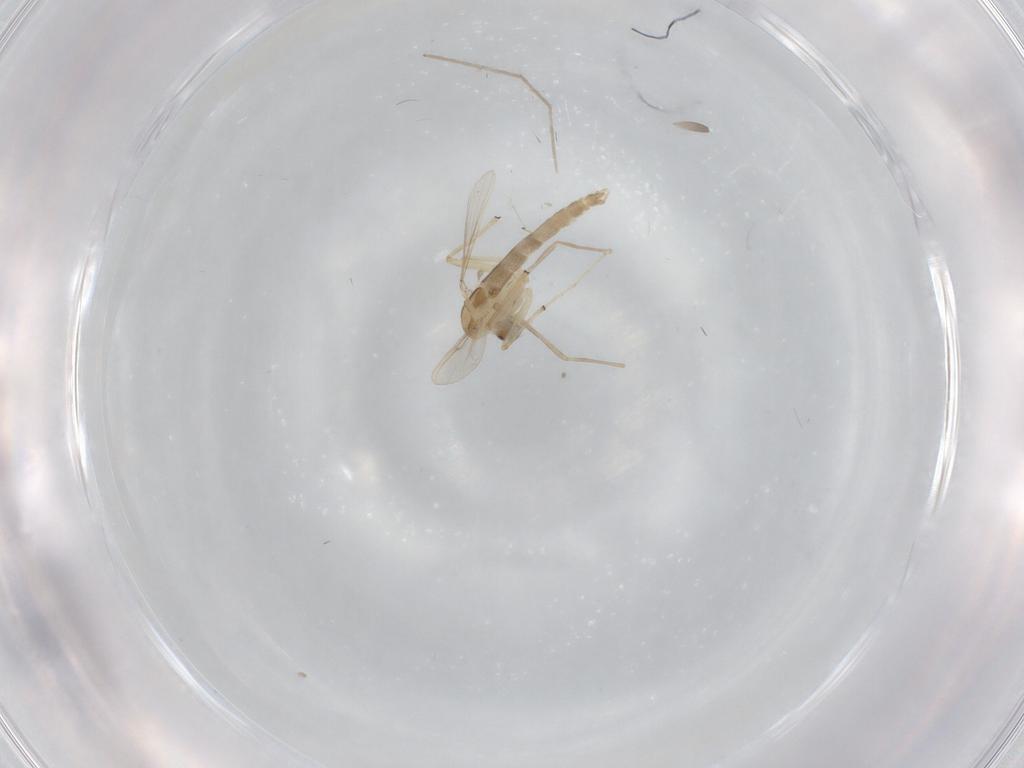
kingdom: Animalia
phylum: Arthropoda
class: Insecta
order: Diptera
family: Chironomidae
